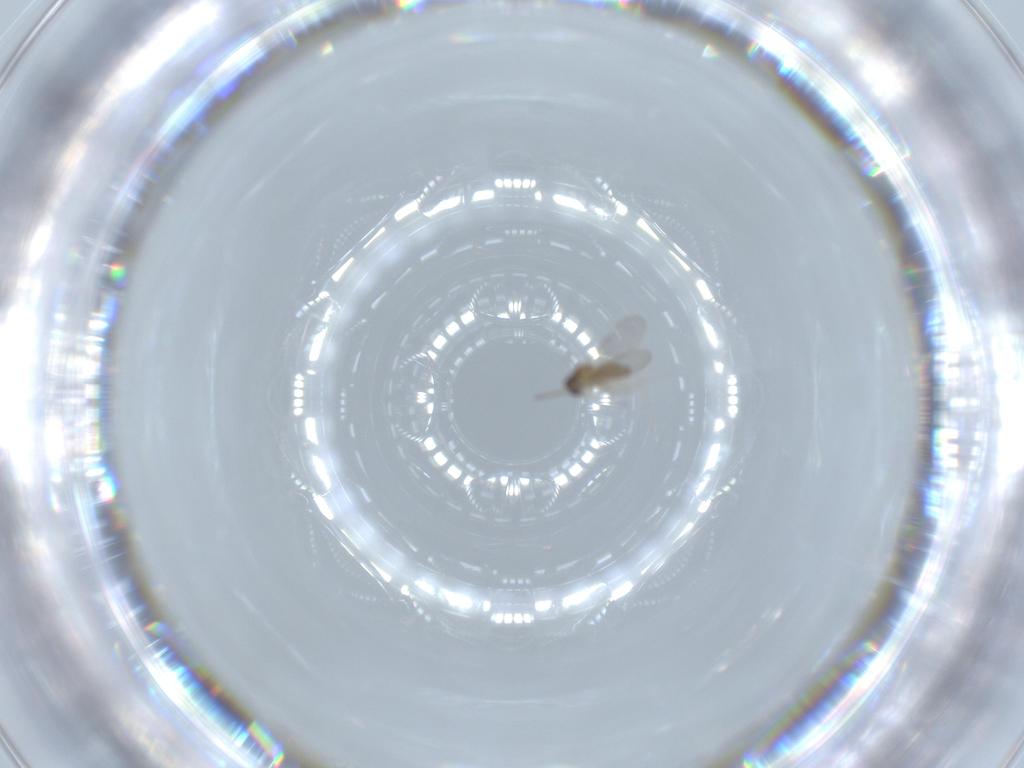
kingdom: Animalia
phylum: Arthropoda
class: Insecta
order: Diptera
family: Cecidomyiidae
